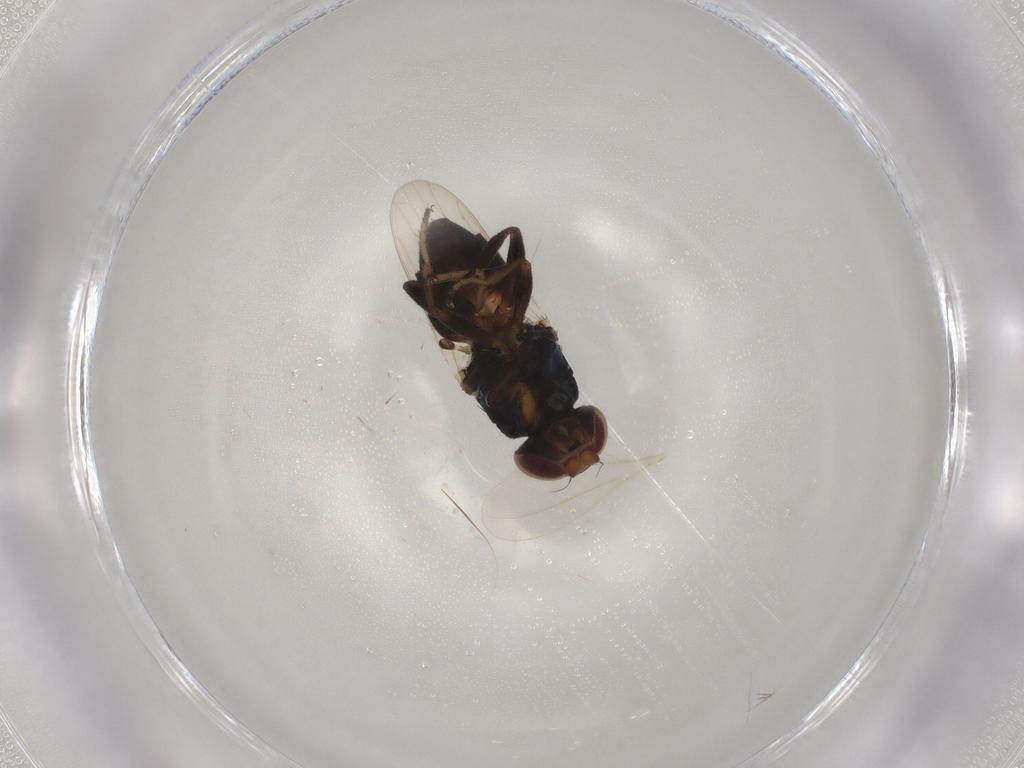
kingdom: Animalia
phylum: Arthropoda
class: Insecta
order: Diptera
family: Chloropidae
